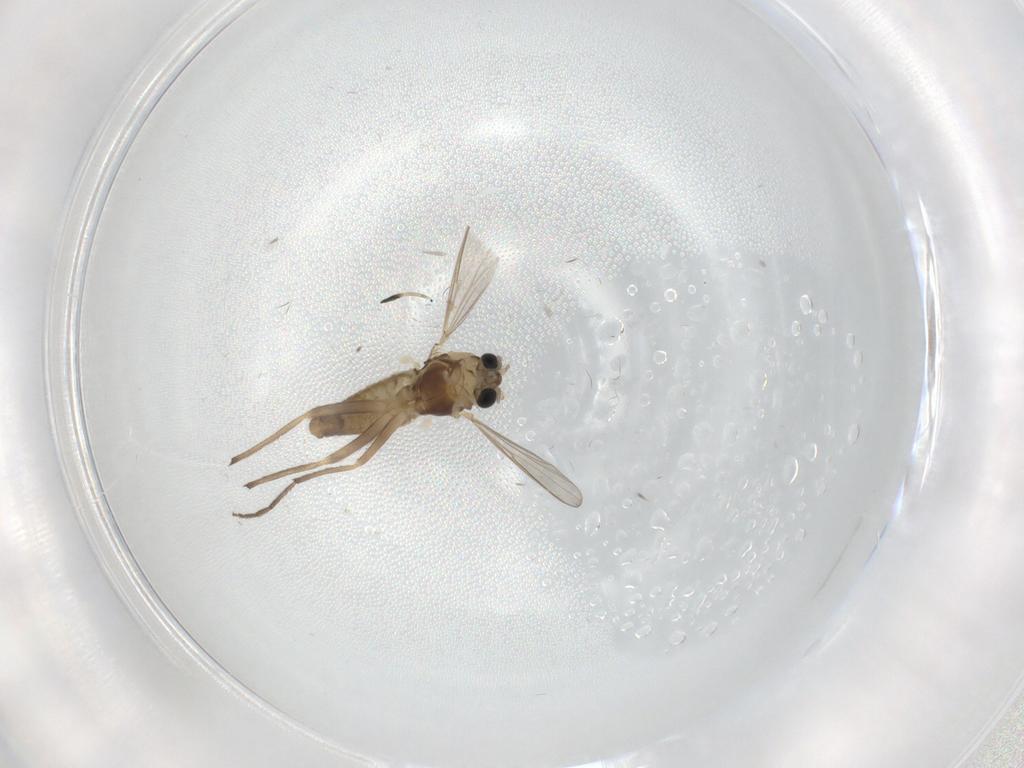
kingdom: Animalia
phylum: Arthropoda
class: Insecta
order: Diptera
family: Chironomidae
